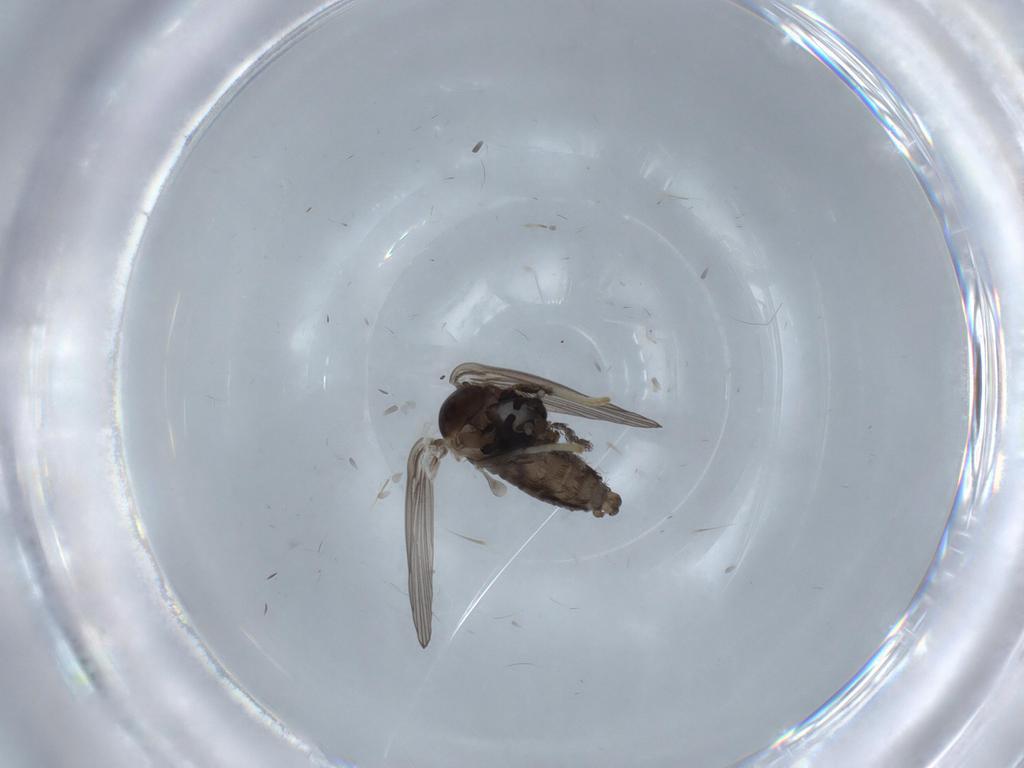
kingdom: Animalia
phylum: Arthropoda
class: Insecta
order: Diptera
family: Psychodidae
